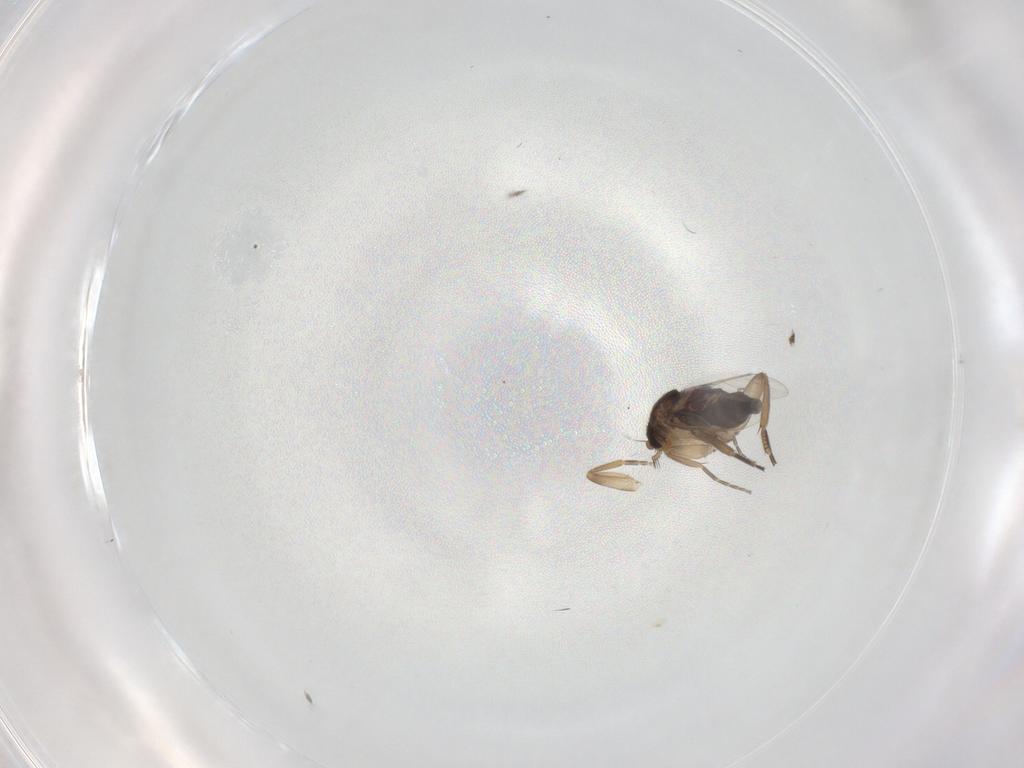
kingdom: Animalia
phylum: Arthropoda
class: Insecta
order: Diptera
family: Phoridae
